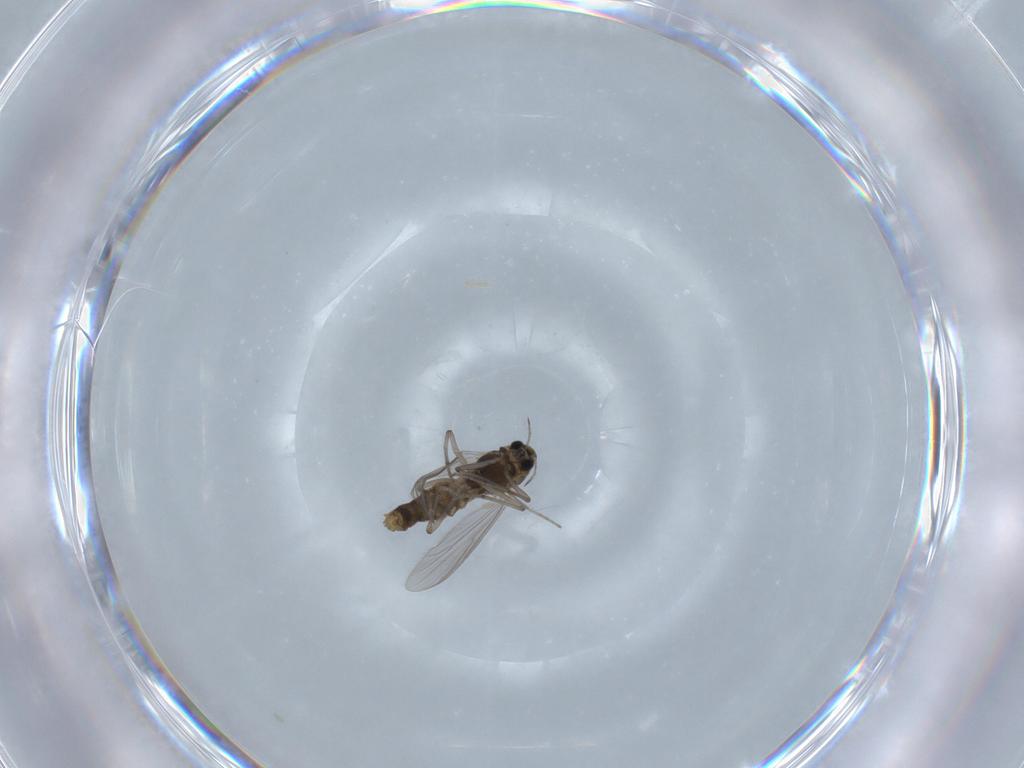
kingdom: Animalia
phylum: Arthropoda
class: Insecta
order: Diptera
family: Chironomidae
